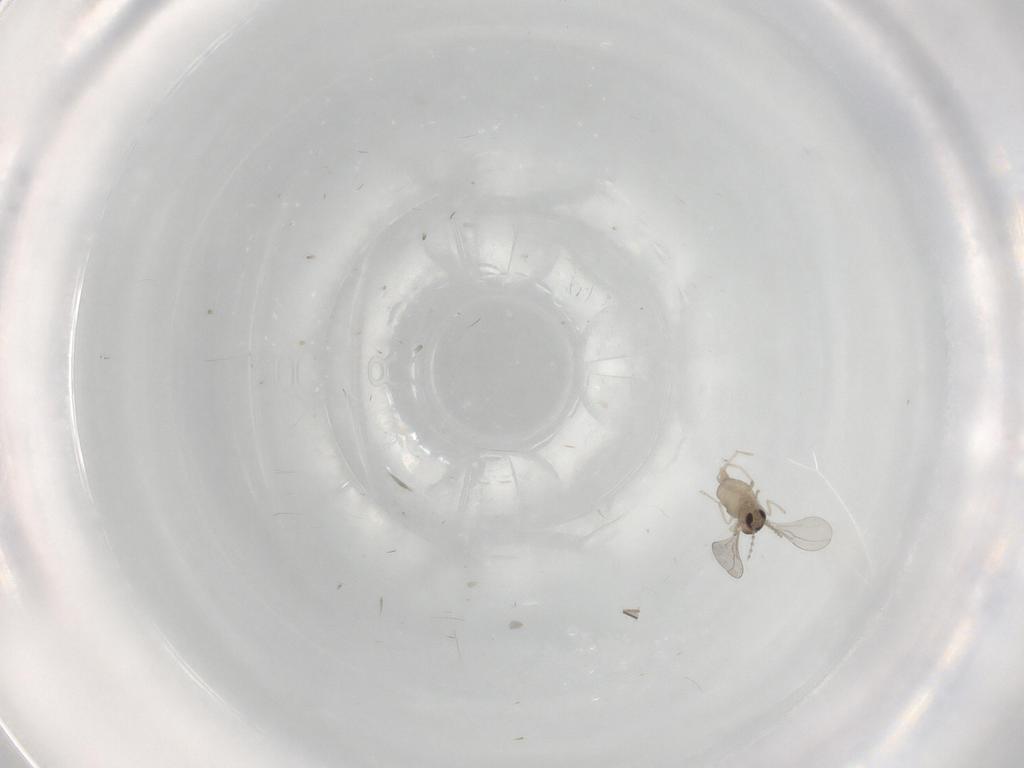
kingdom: Animalia
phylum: Arthropoda
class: Insecta
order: Diptera
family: Cecidomyiidae
